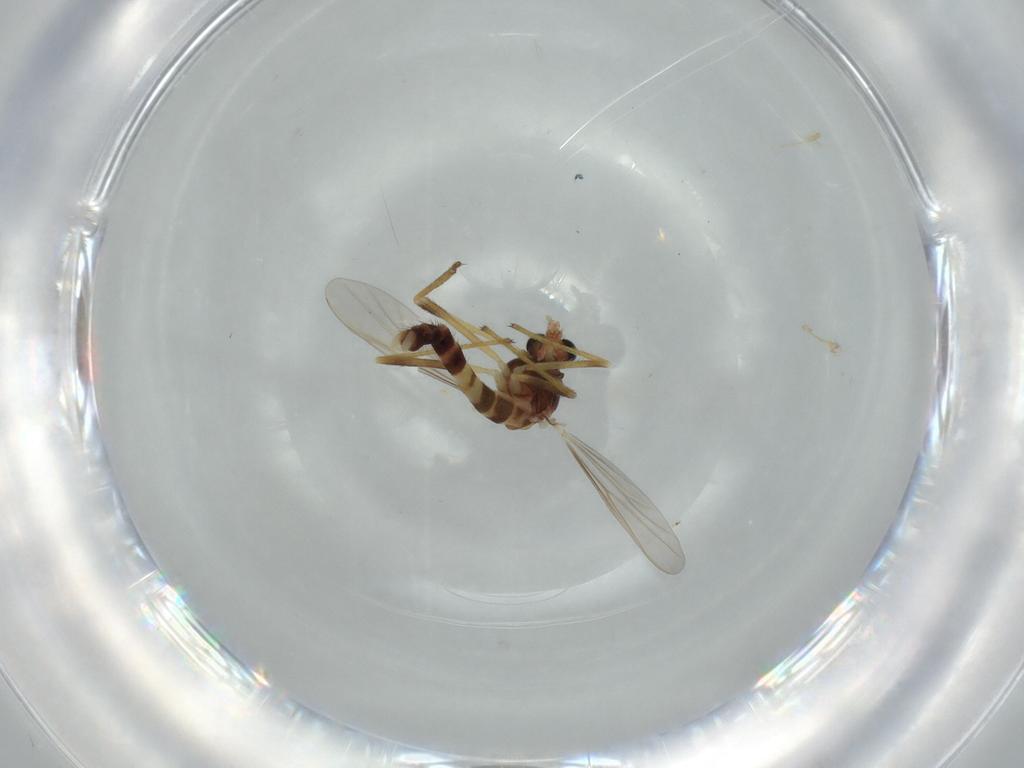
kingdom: Animalia
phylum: Arthropoda
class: Insecta
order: Diptera
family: Chironomidae
